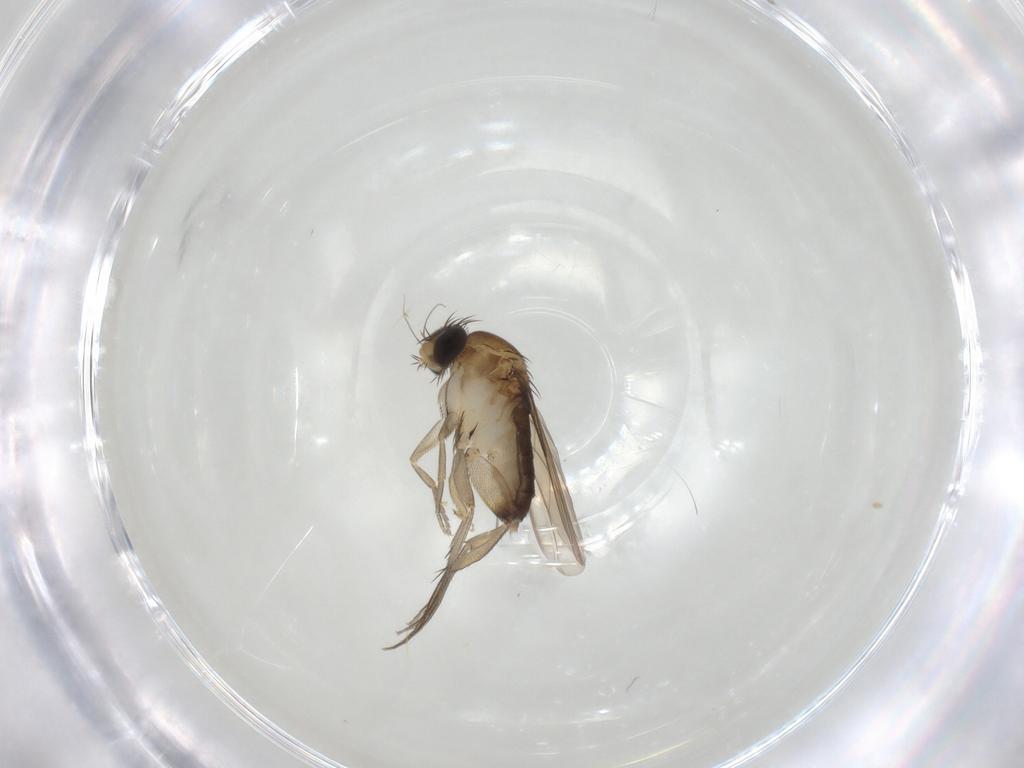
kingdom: Animalia
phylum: Arthropoda
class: Insecta
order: Diptera
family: Phoridae
